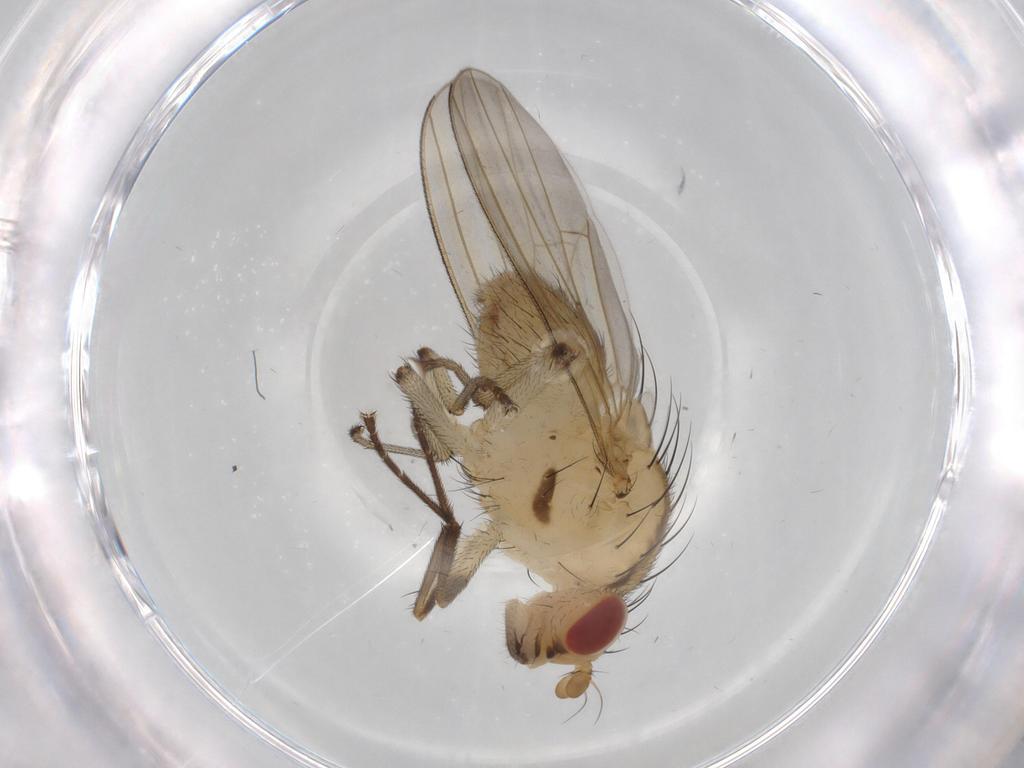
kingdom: Animalia
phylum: Arthropoda
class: Insecta
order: Diptera
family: Lauxaniidae
